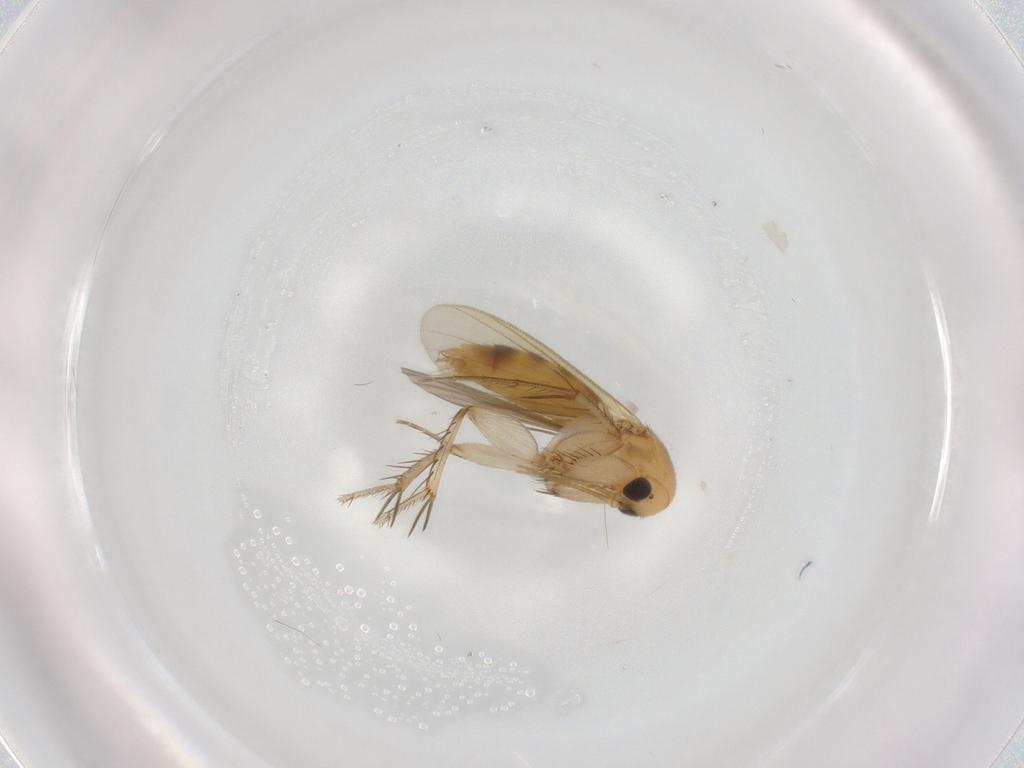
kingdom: Animalia
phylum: Arthropoda
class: Insecta
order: Diptera
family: Mycetophilidae
